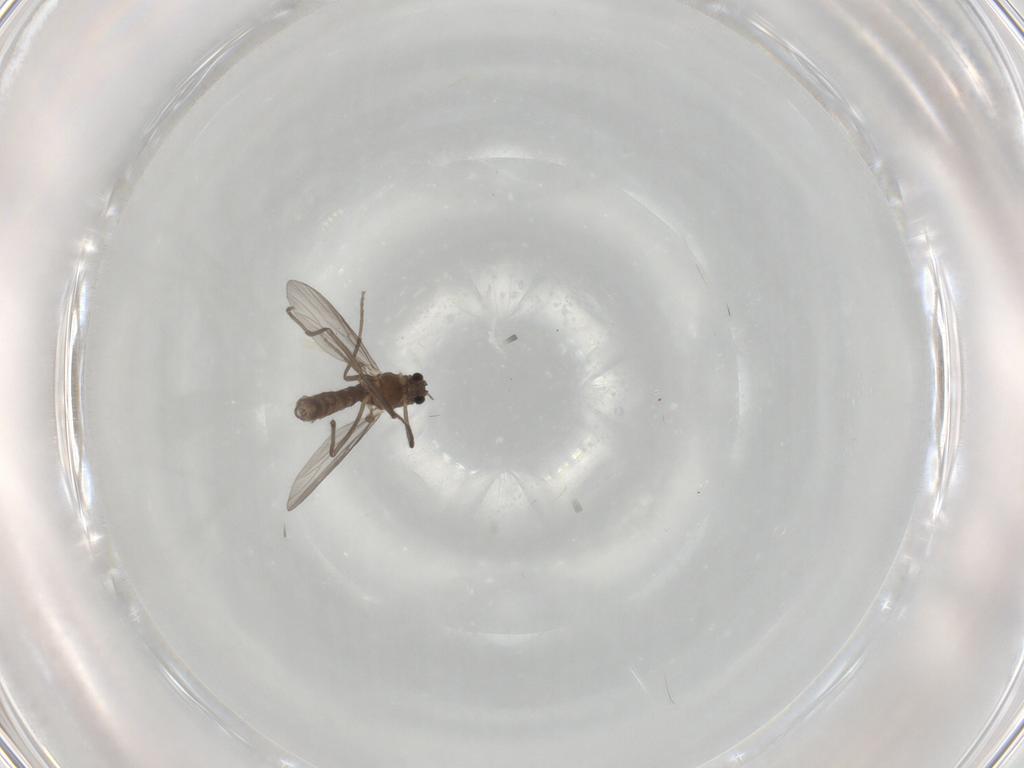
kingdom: Animalia
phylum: Arthropoda
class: Insecta
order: Diptera
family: Chironomidae
